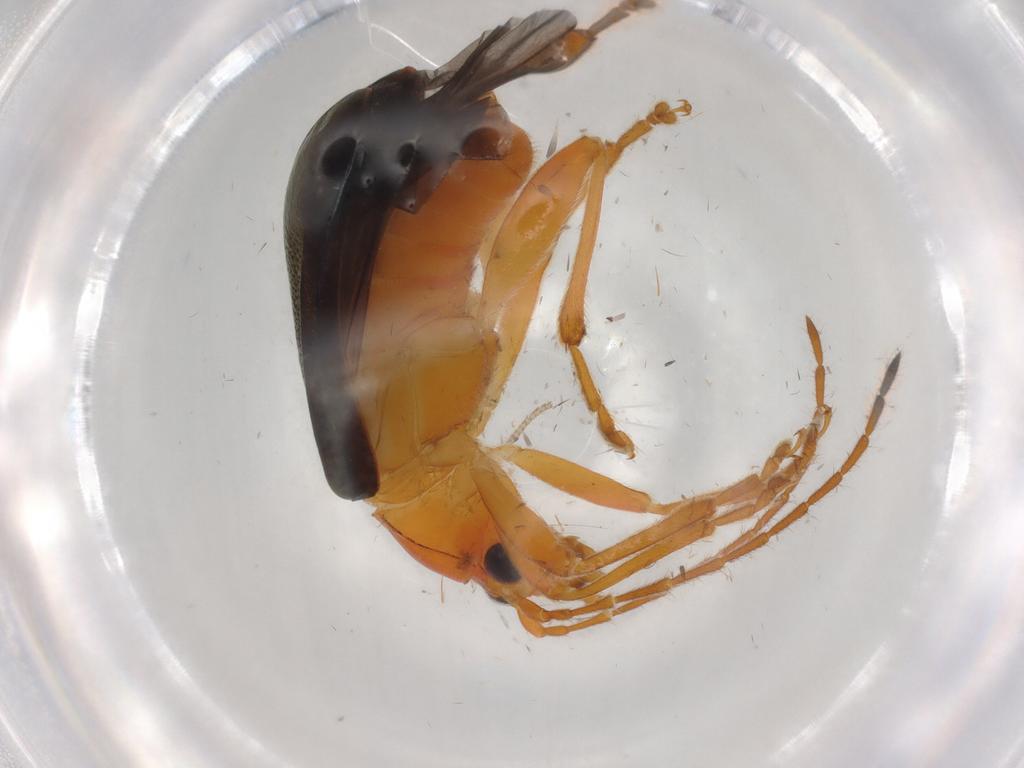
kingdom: Animalia
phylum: Arthropoda
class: Insecta
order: Coleoptera
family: Chrysomelidae
